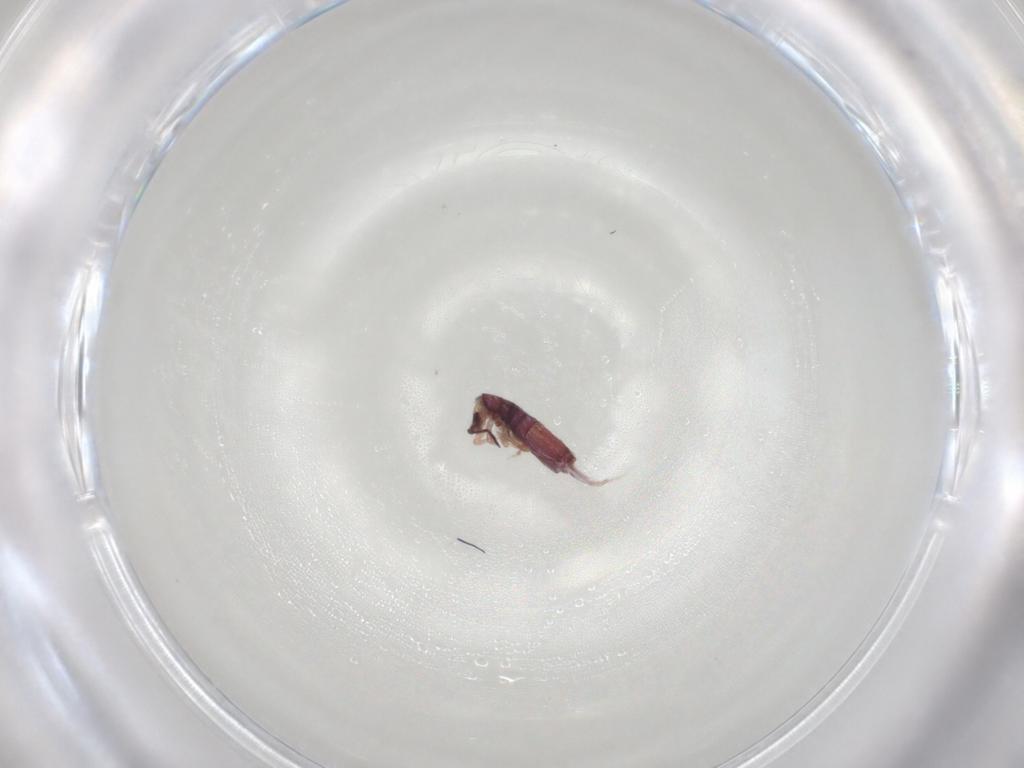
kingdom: Animalia
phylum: Arthropoda
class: Collembola
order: Entomobryomorpha
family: Entomobryidae
